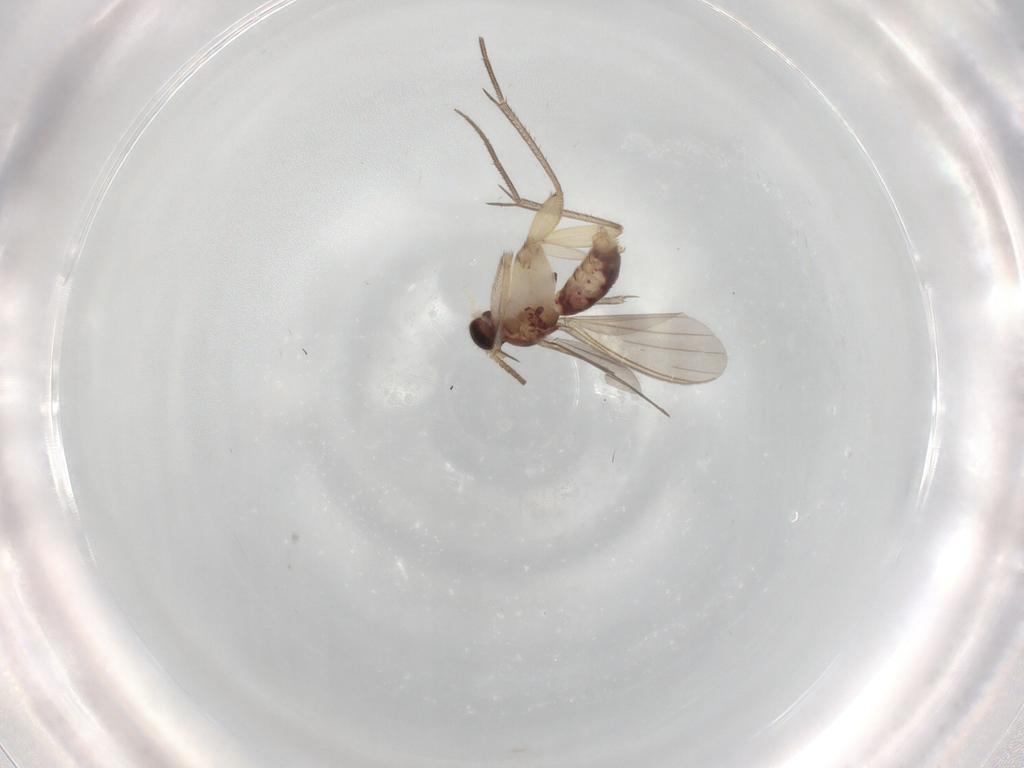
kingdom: Animalia
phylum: Arthropoda
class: Insecta
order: Diptera
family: Mycetophilidae
